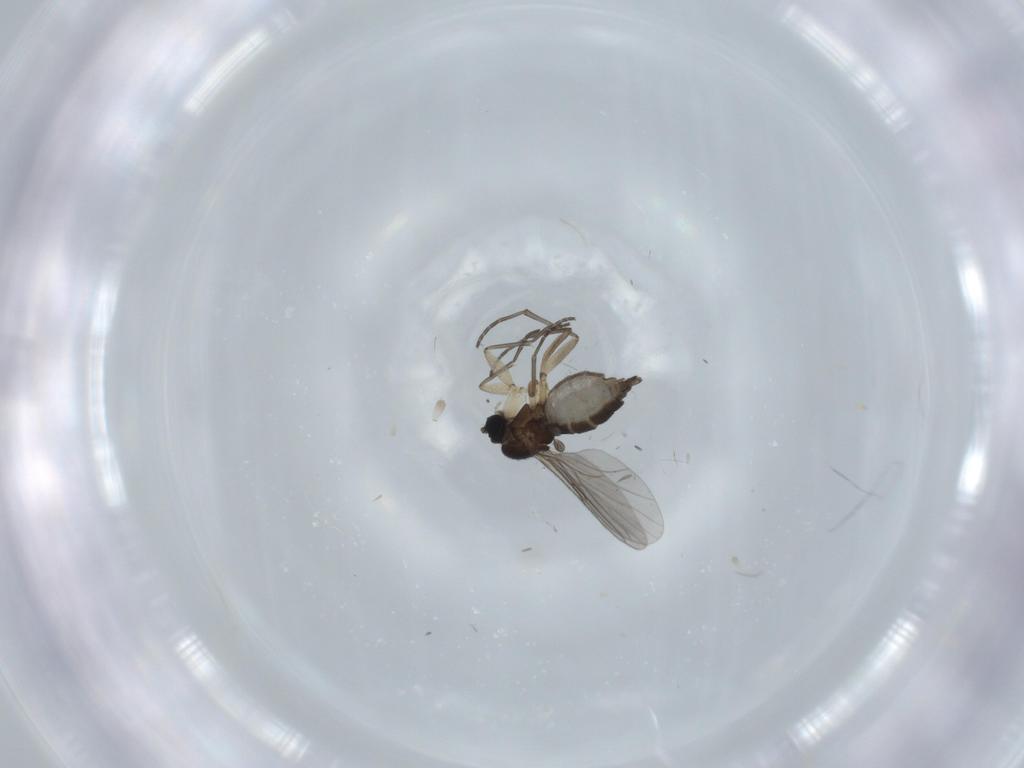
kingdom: Animalia
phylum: Arthropoda
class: Insecta
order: Diptera
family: Sciaridae
